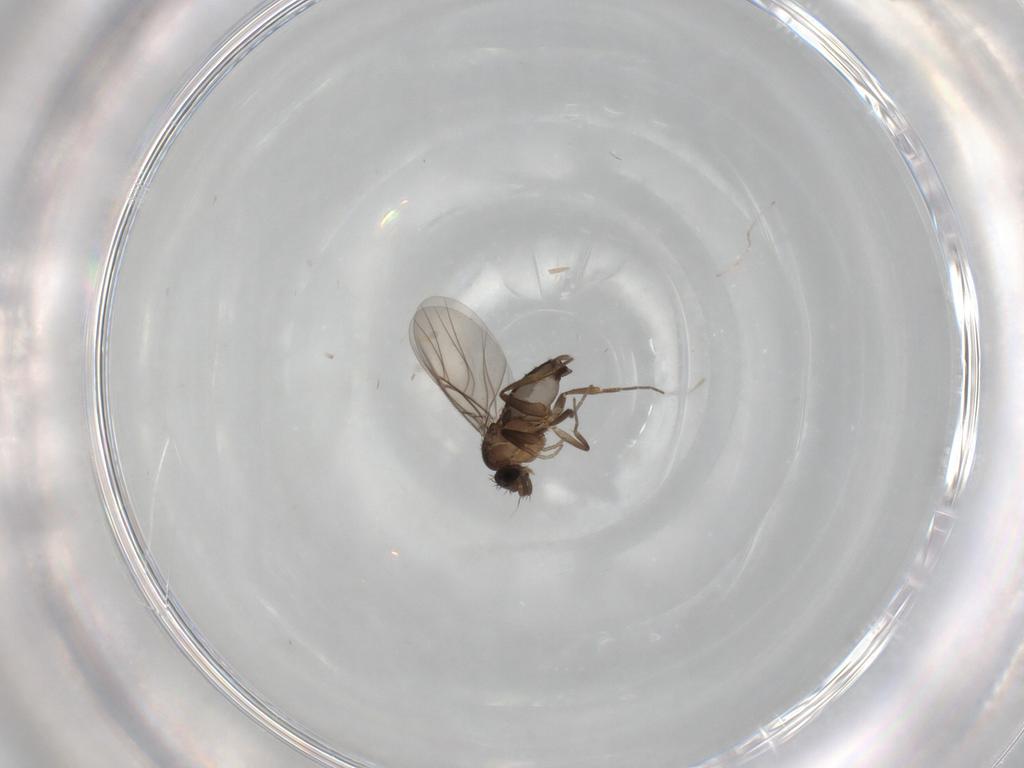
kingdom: Animalia
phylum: Arthropoda
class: Insecta
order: Diptera
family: Phoridae
